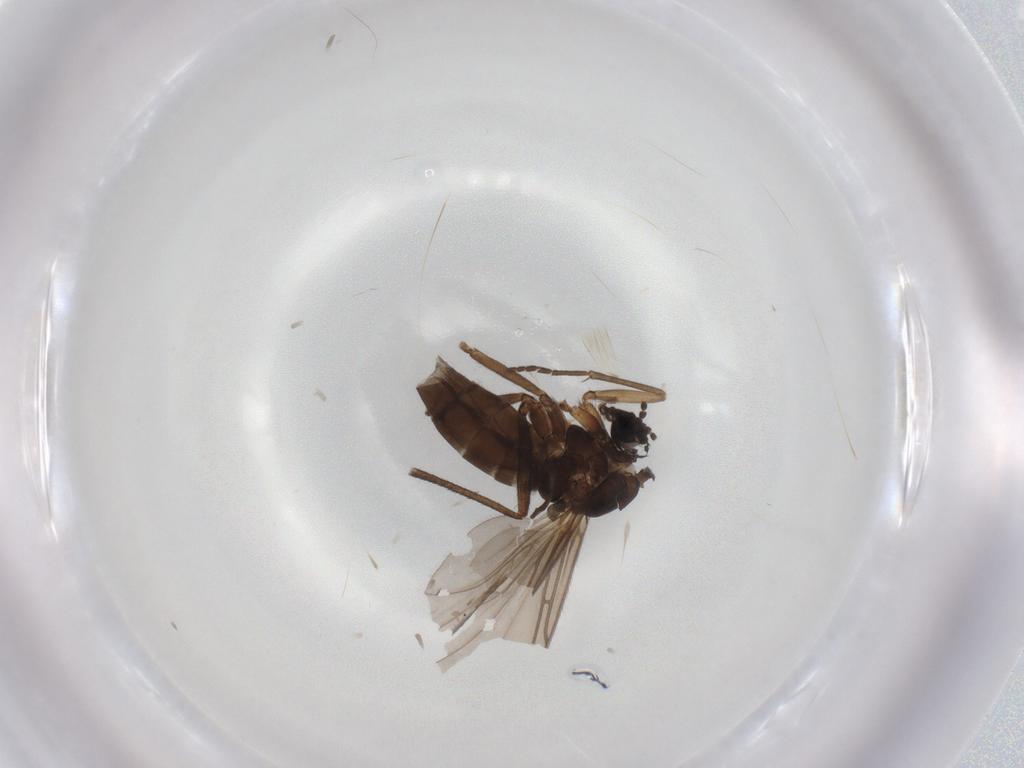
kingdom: Animalia
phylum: Arthropoda
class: Insecta
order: Diptera
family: Sciaridae
